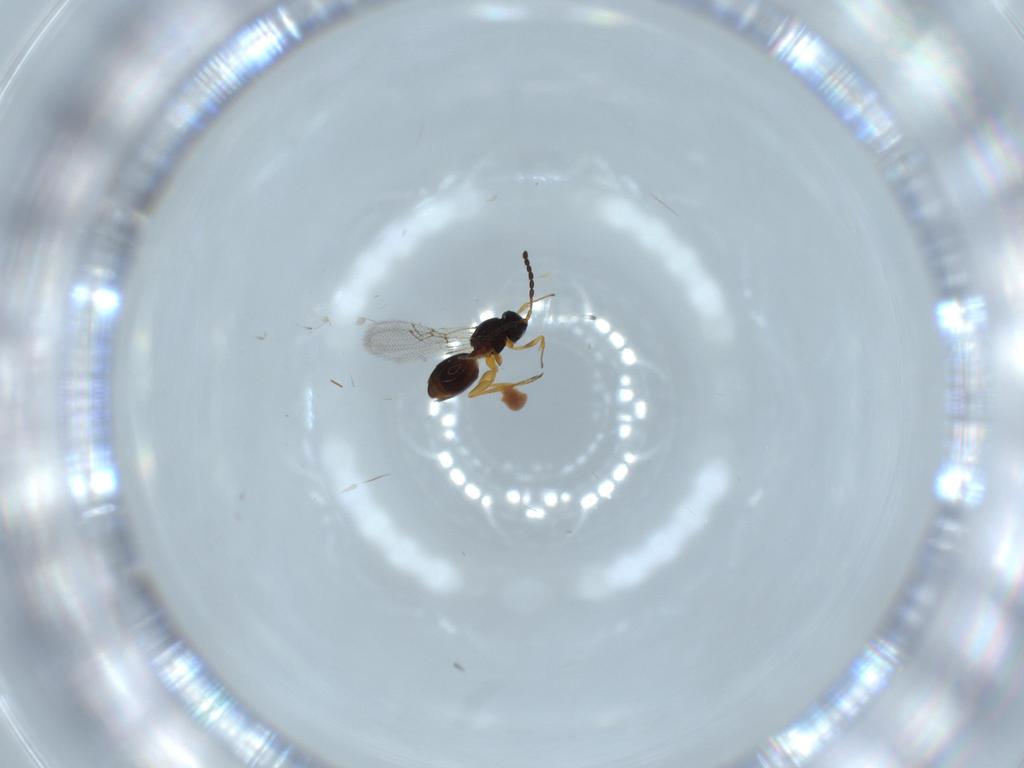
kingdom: Animalia
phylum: Arthropoda
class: Insecta
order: Hymenoptera
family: Figitidae
